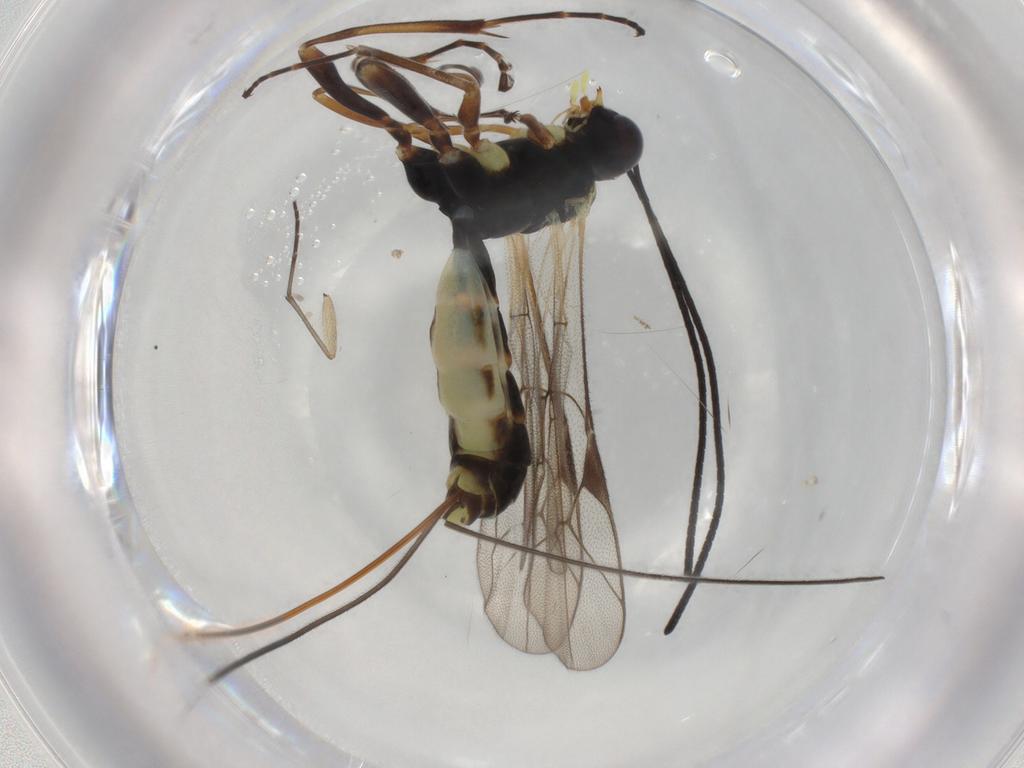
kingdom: Animalia
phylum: Arthropoda
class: Insecta
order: Hymenoptera
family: Ichneumonidae
